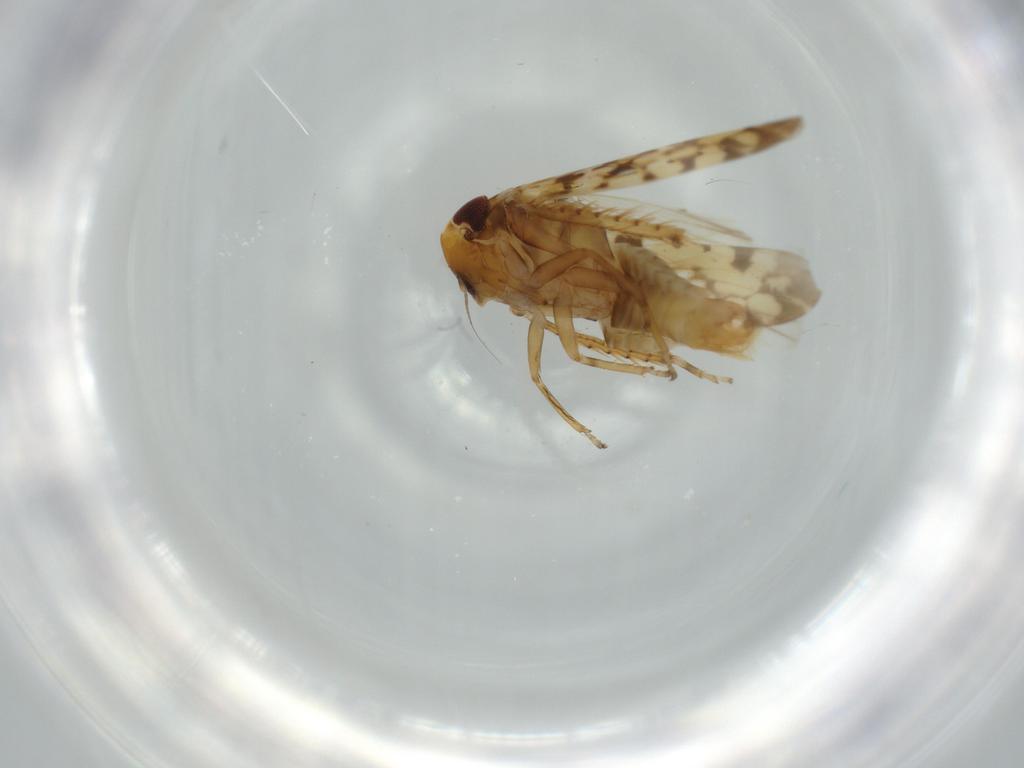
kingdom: Animalia
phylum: Arthropoda
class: Insecta
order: Hemiptera
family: Cicadellidae
